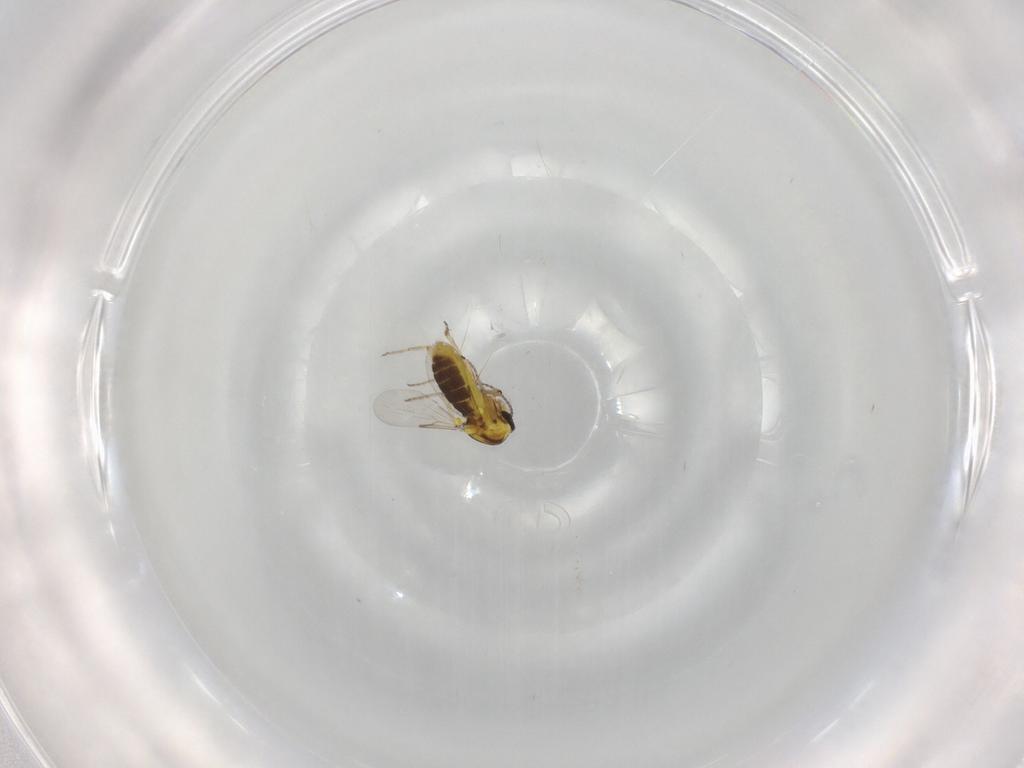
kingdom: Animalia
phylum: Arthropoda
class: Insecta
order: Diptera
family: Ceratopogonidae
